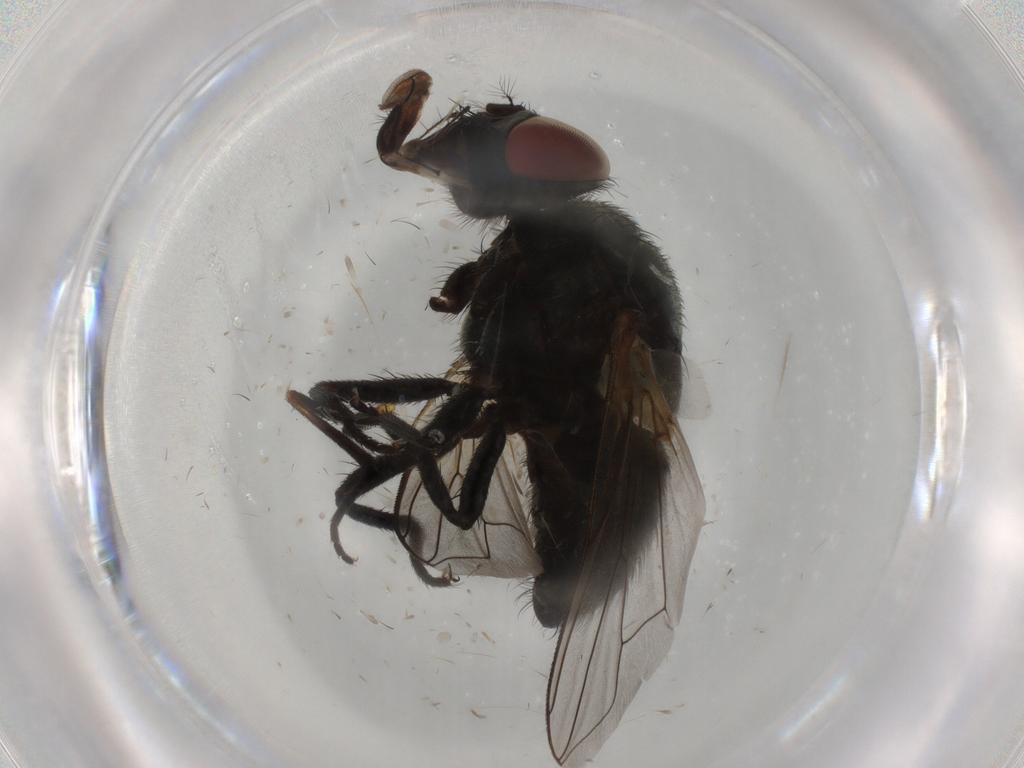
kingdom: Animalia
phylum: Arthropoda
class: Insecta
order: Diptera
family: Muscidae
